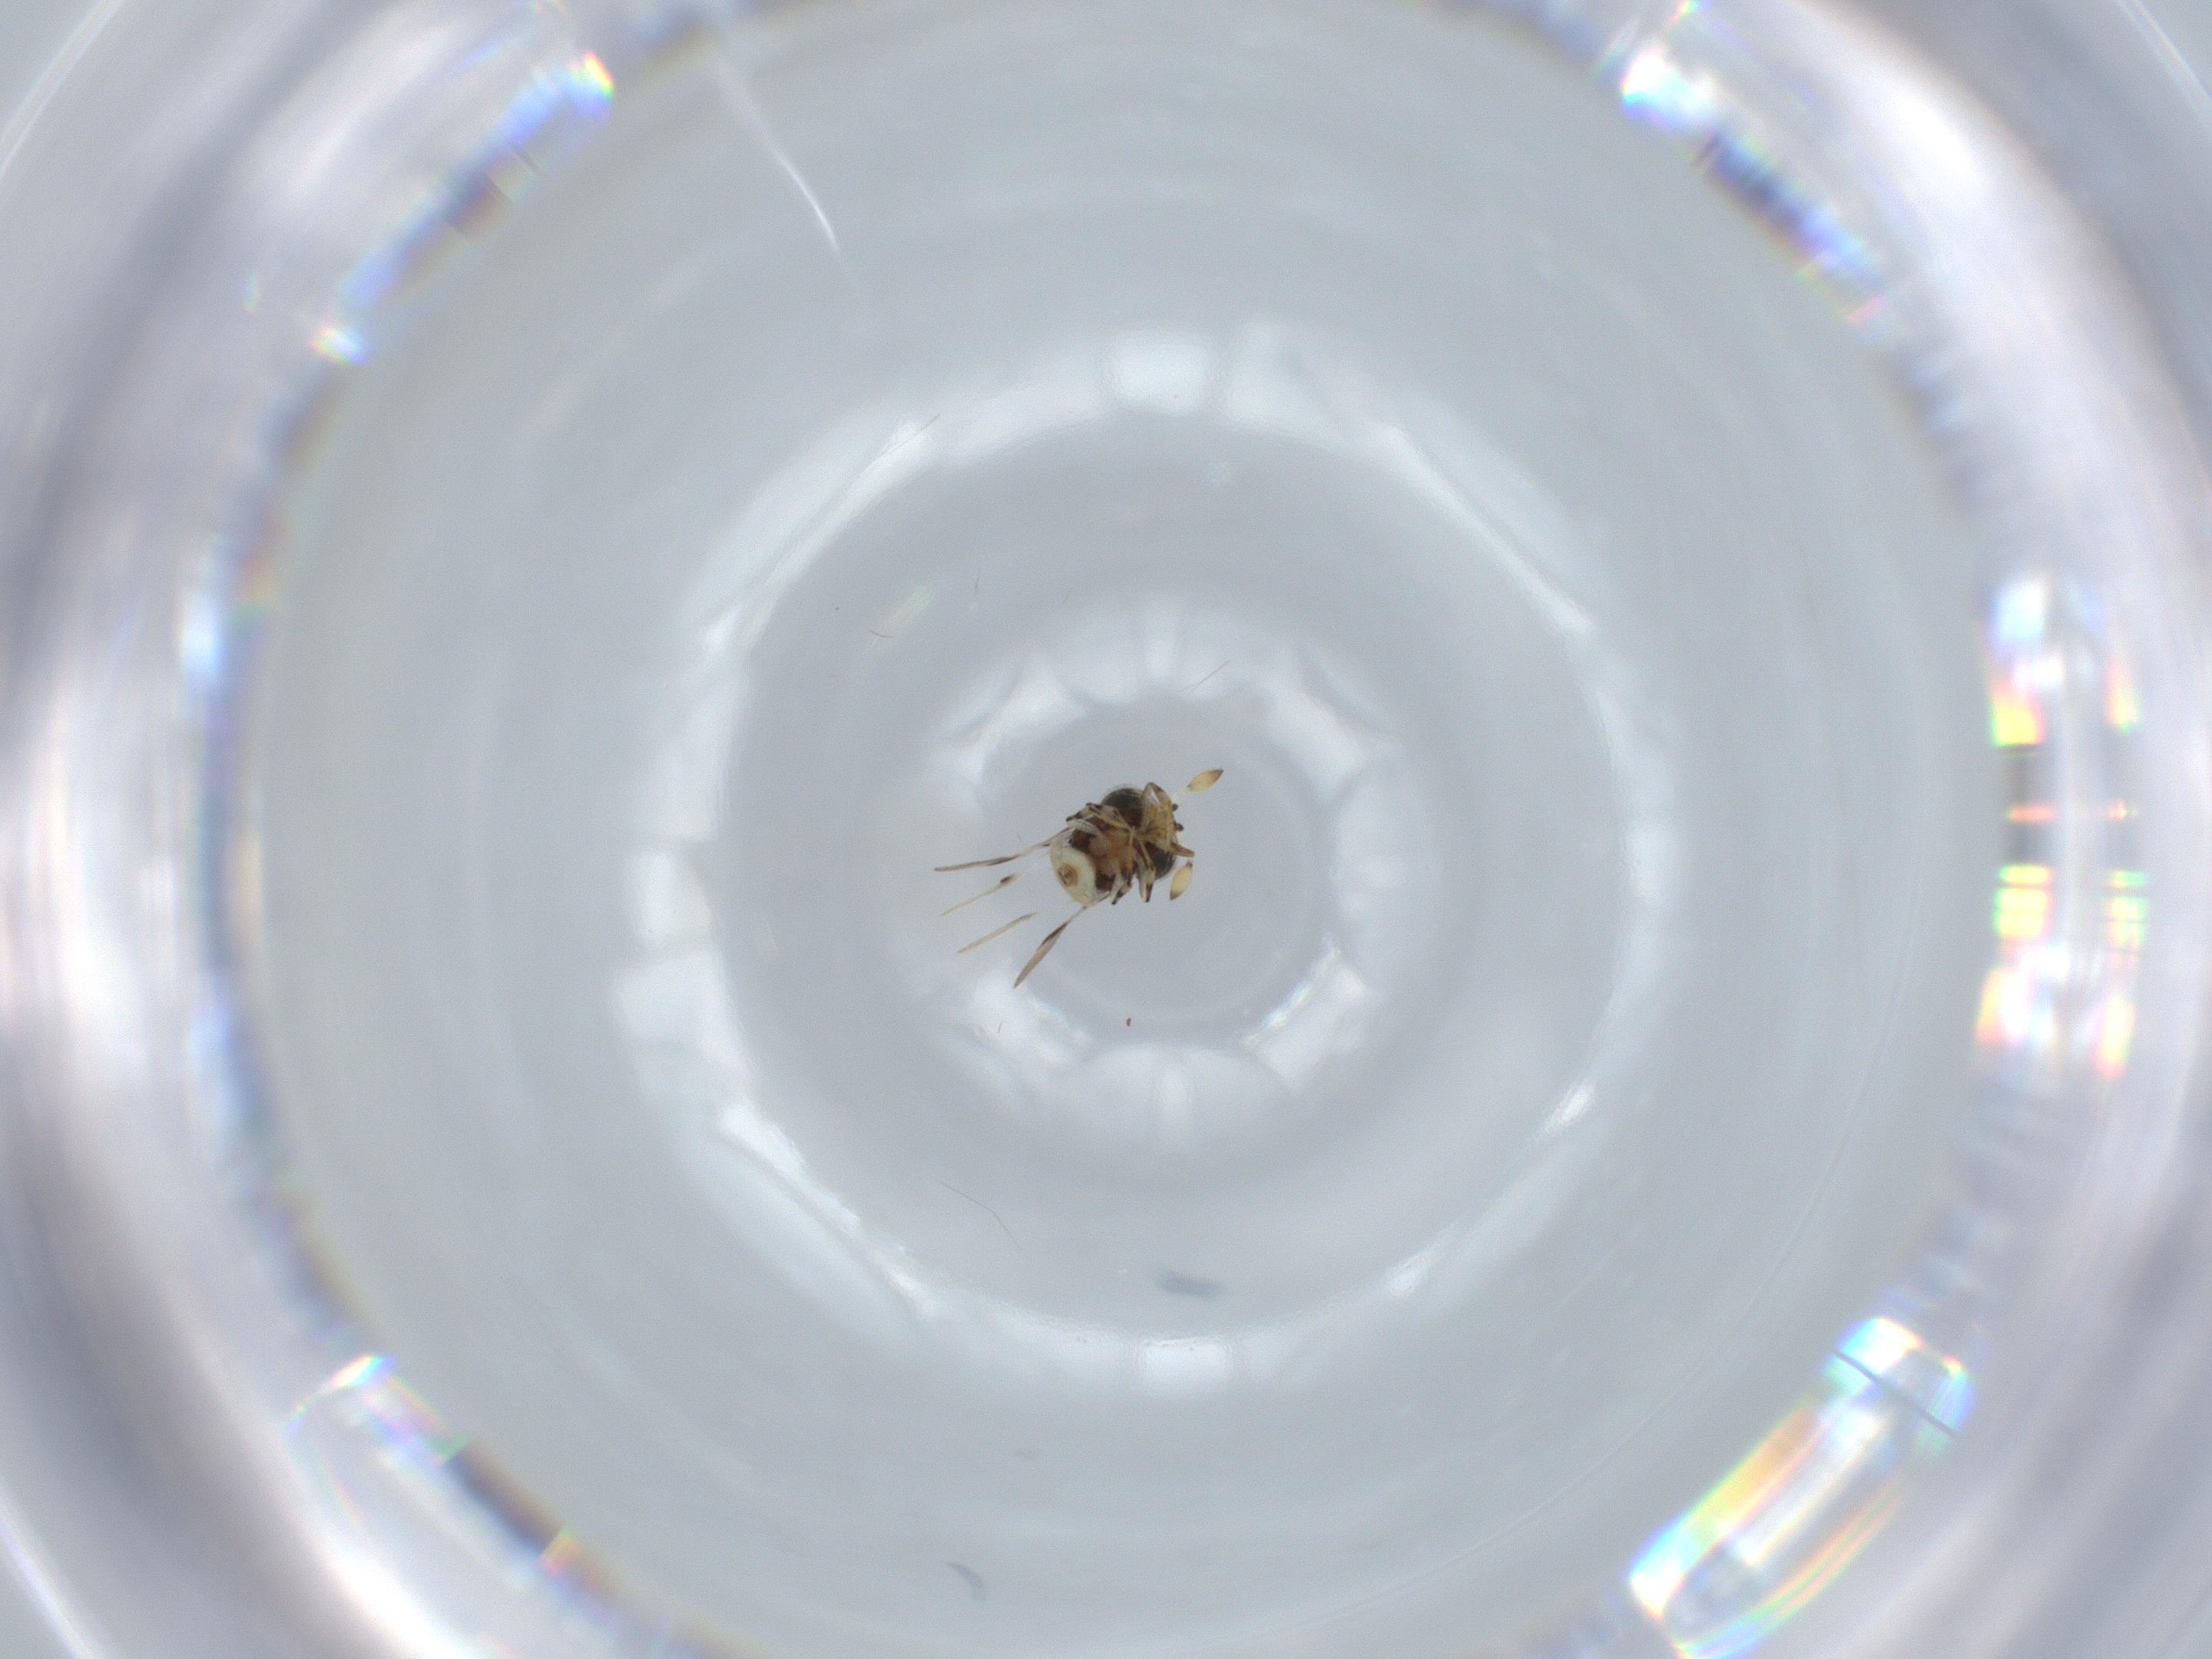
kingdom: Animalia
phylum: Arthropoda
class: Insecta
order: Hymenoptera
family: Scelionidae
